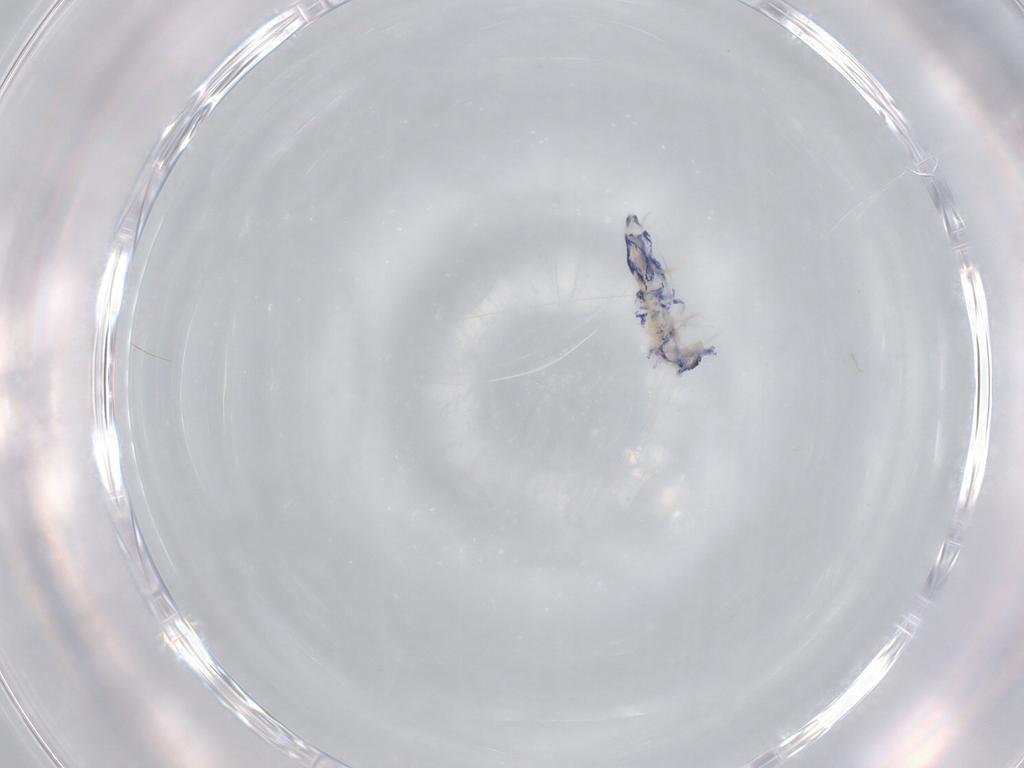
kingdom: Animalia
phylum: Arthropoda
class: Collembola
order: Entomobryomorpha
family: Entomobryidae
